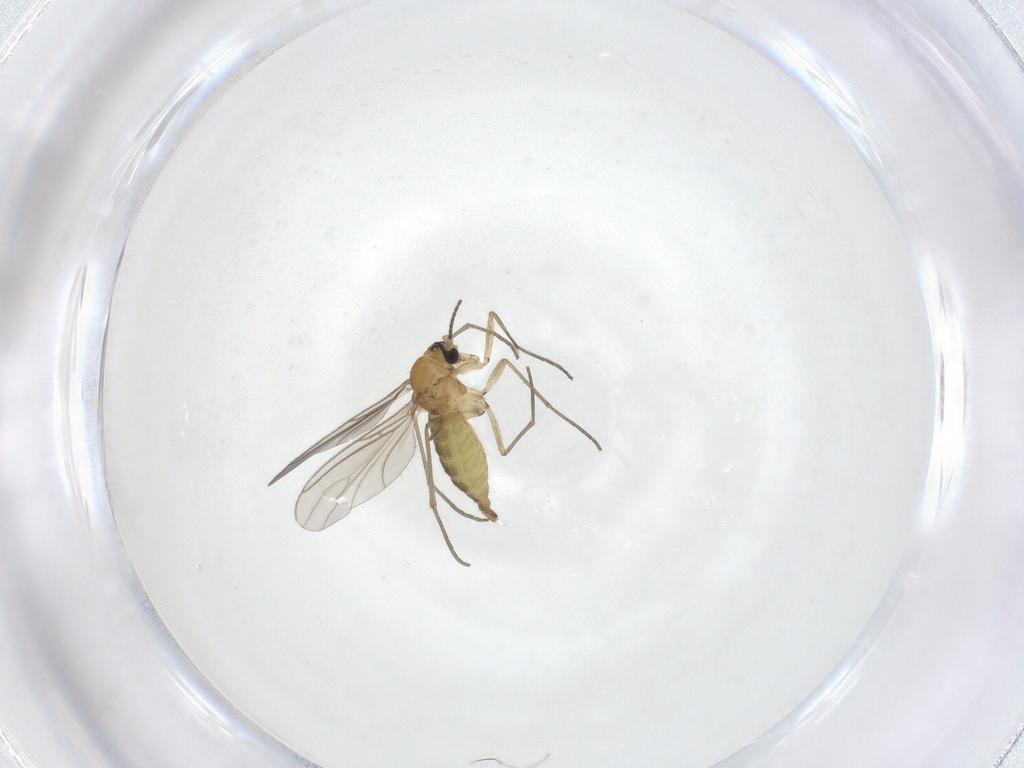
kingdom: Animalia
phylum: Arthropoda
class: Insecta
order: Diptera
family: Sciaridae
